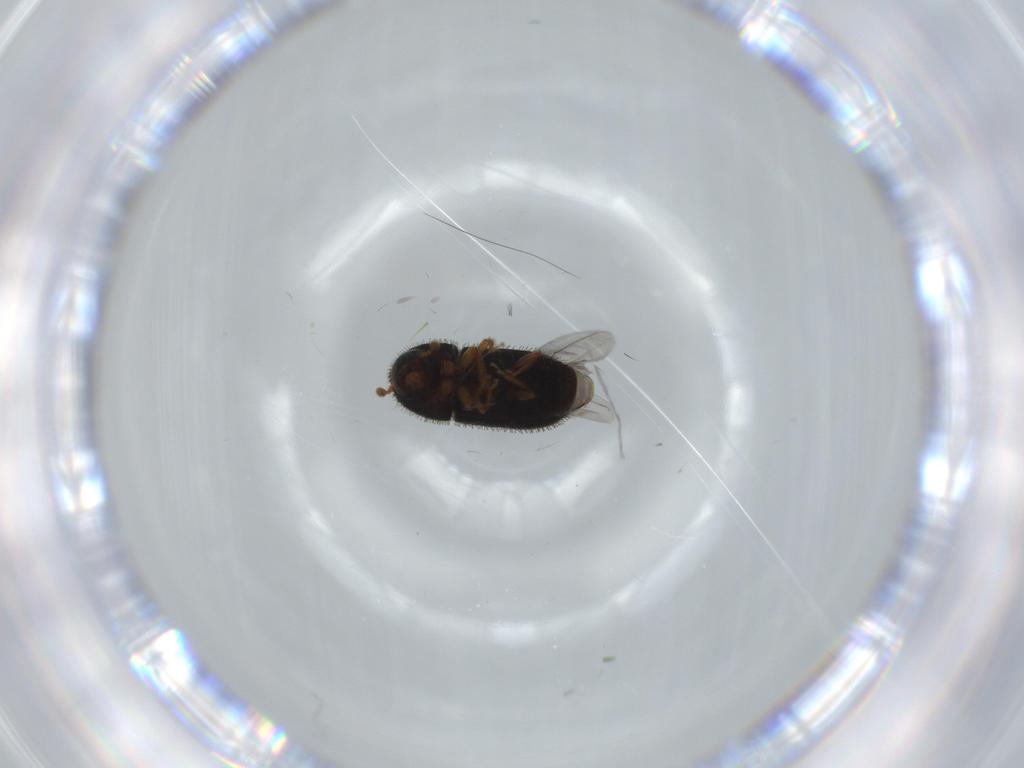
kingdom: Animalia
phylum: Arthropoda
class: Insecta
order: Coleoptera
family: Curculionidae
